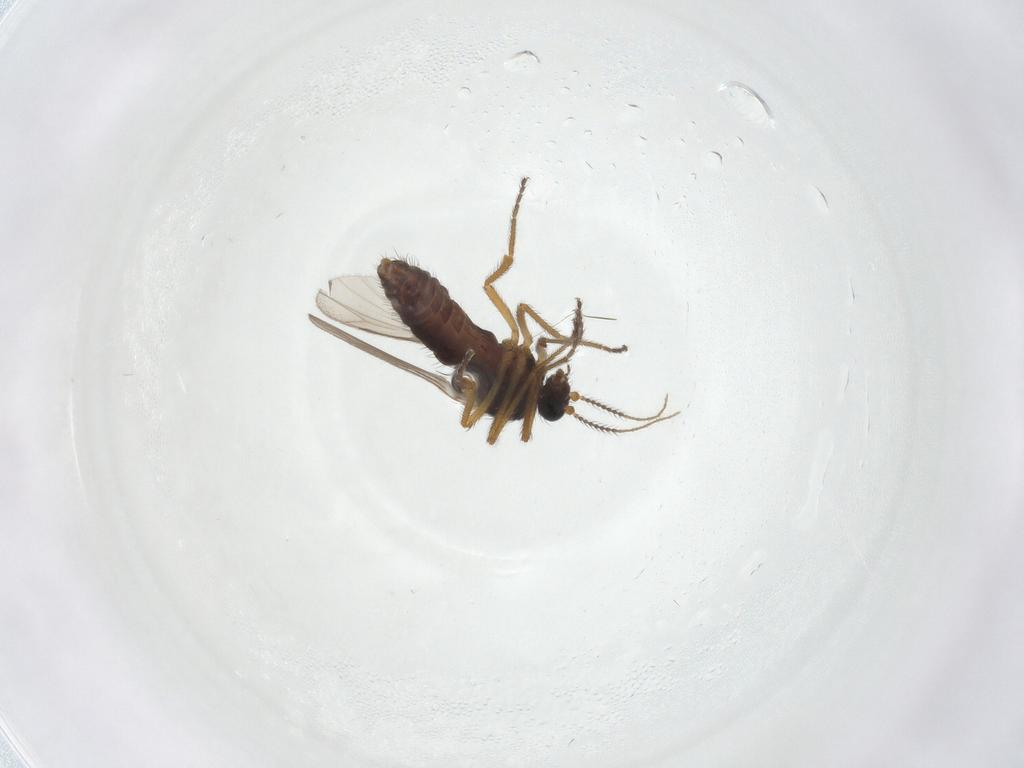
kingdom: Animalia
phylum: Arthropoda
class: Insecta
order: Diptera
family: Ceratopogonidae
